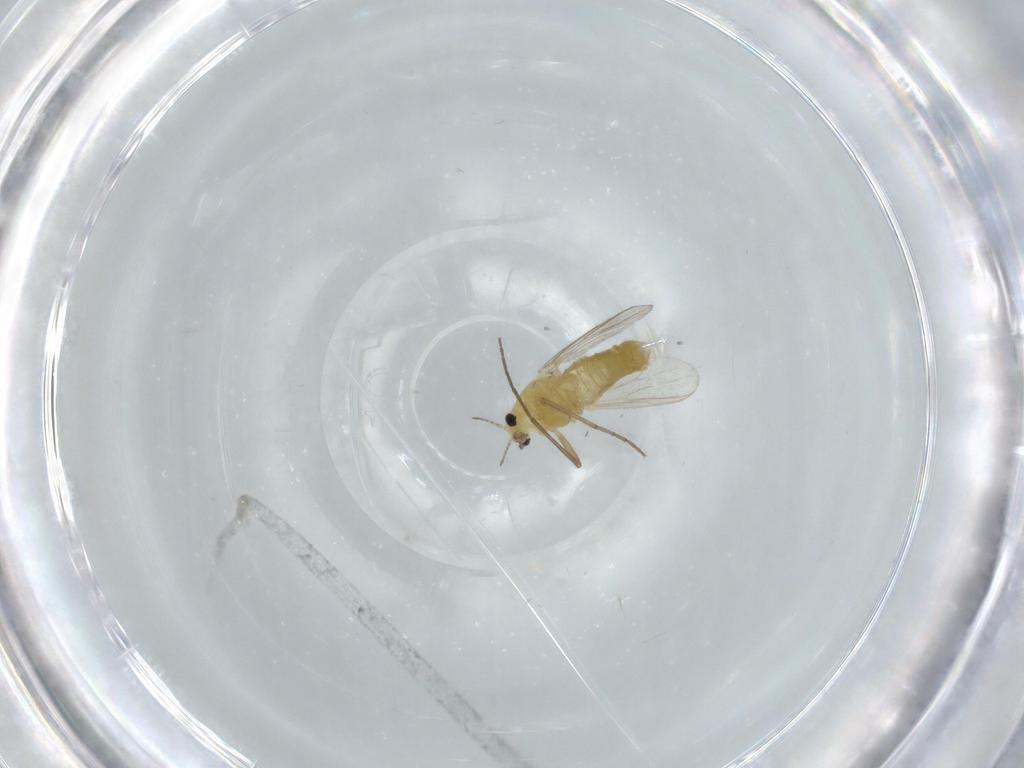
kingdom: Animalia
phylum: Arthropoda
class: Insecta
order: Diptera
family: Chironomidae
